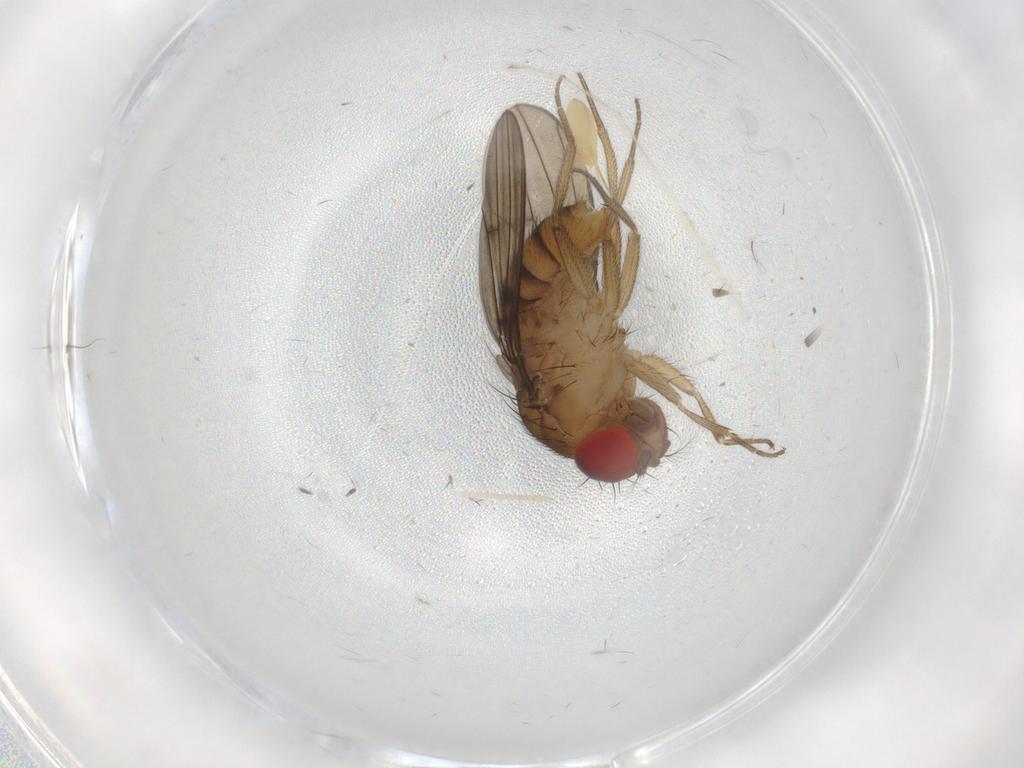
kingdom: Animalia
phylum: Arthropoda
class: Insecta
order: Diptera
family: Drosophilidae
